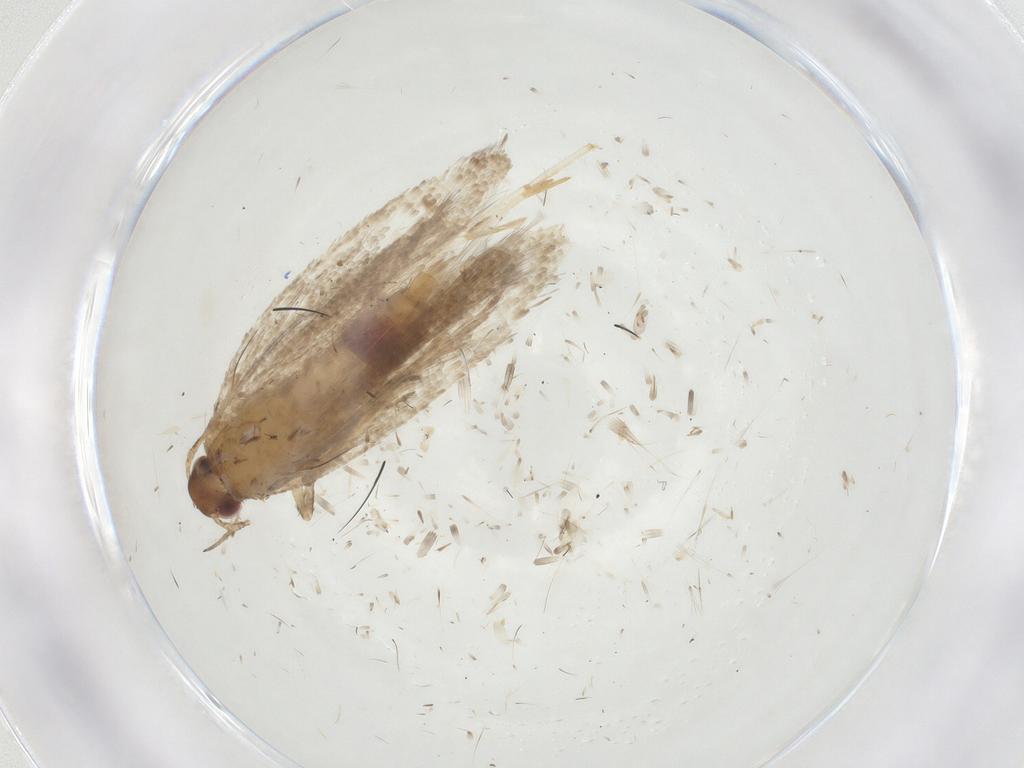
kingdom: Animalia
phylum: Arthropoda
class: Insecta
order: Lepidoptera
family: Gelechiidae
